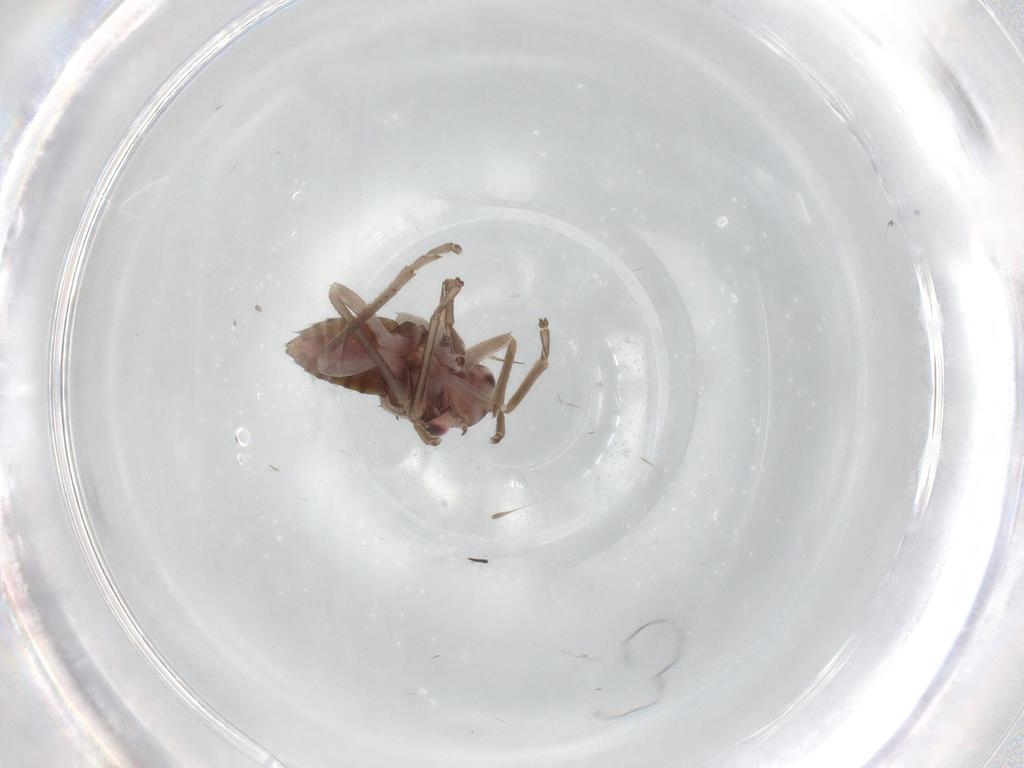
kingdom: Animalia
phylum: Arthropoda
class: Insecta
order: Hemiptera
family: Cicadellidae
